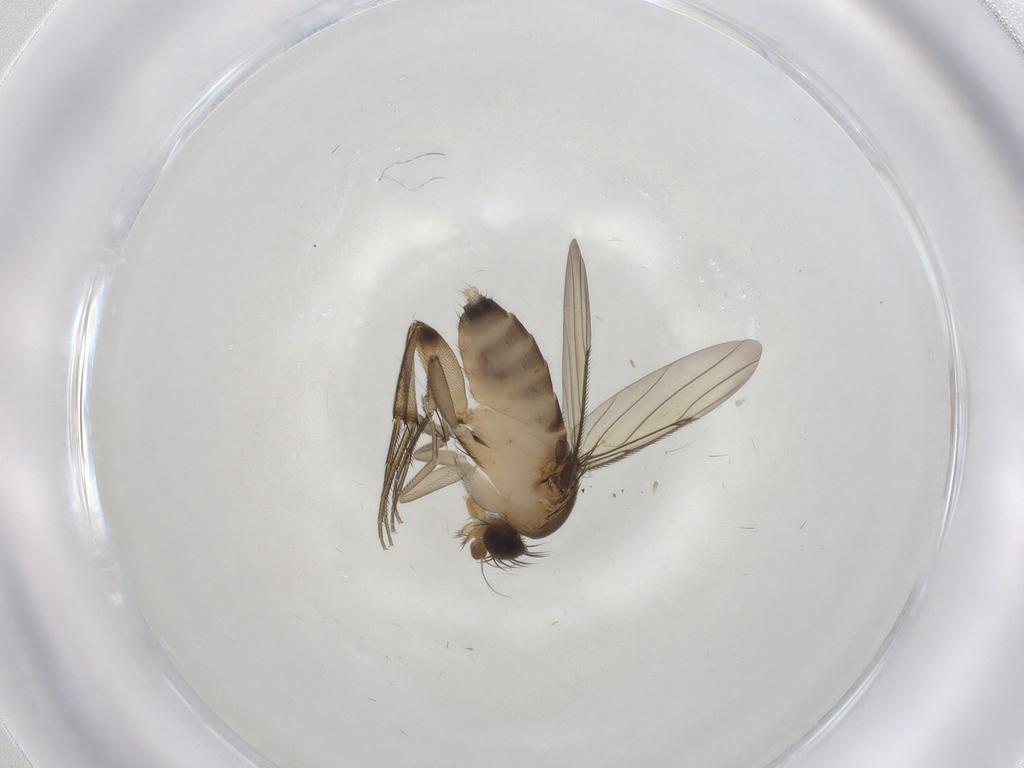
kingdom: Animalia
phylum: Arthropoda
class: Insecta
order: Diptera
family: Phoridae
